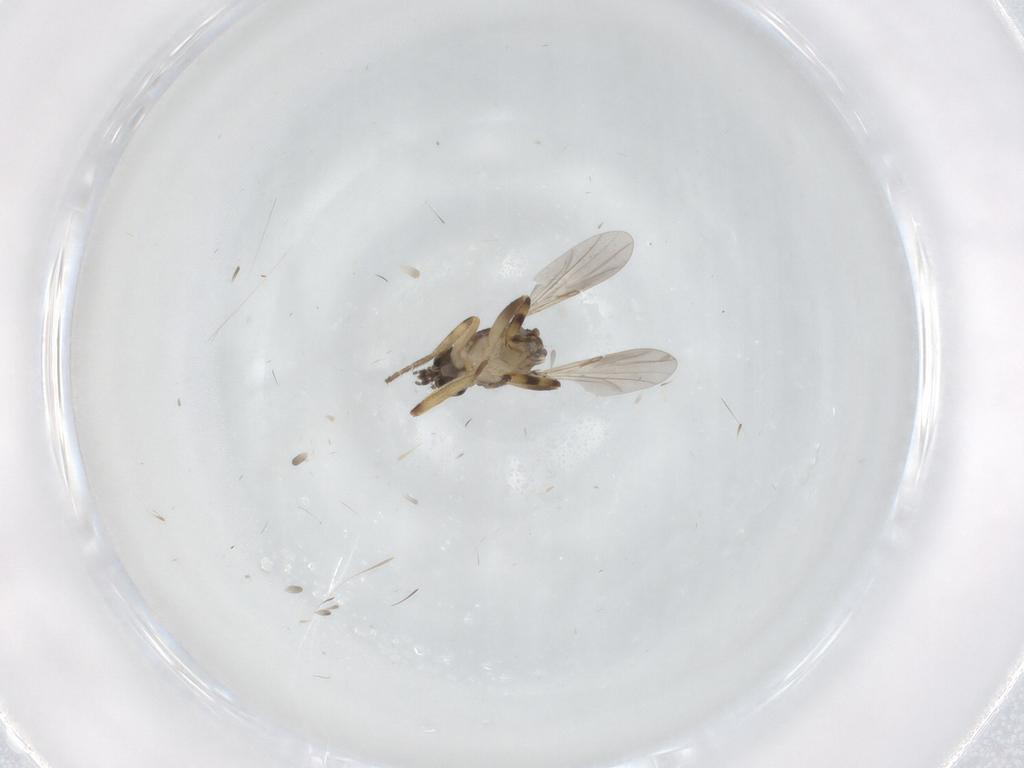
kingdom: Animalia
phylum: Arthropoda
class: Insecta
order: Diptera
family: Ceratopogonidae
